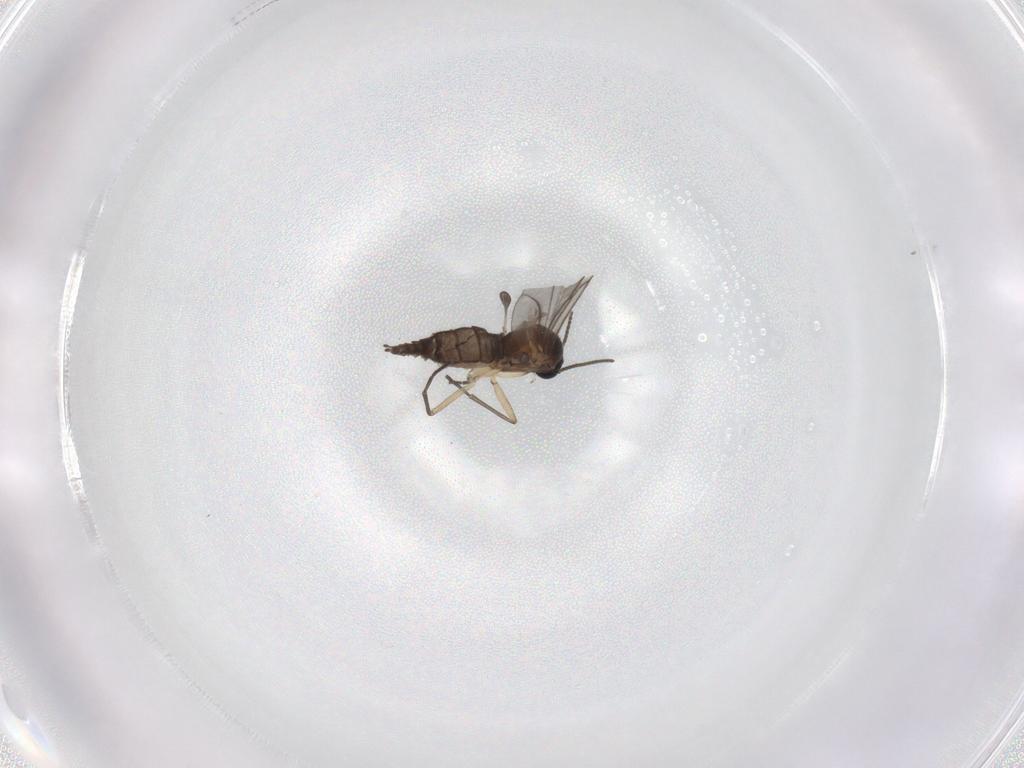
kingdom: Animalia
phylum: Arthropoda
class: Insecta
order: Diptera
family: Sciaridae
